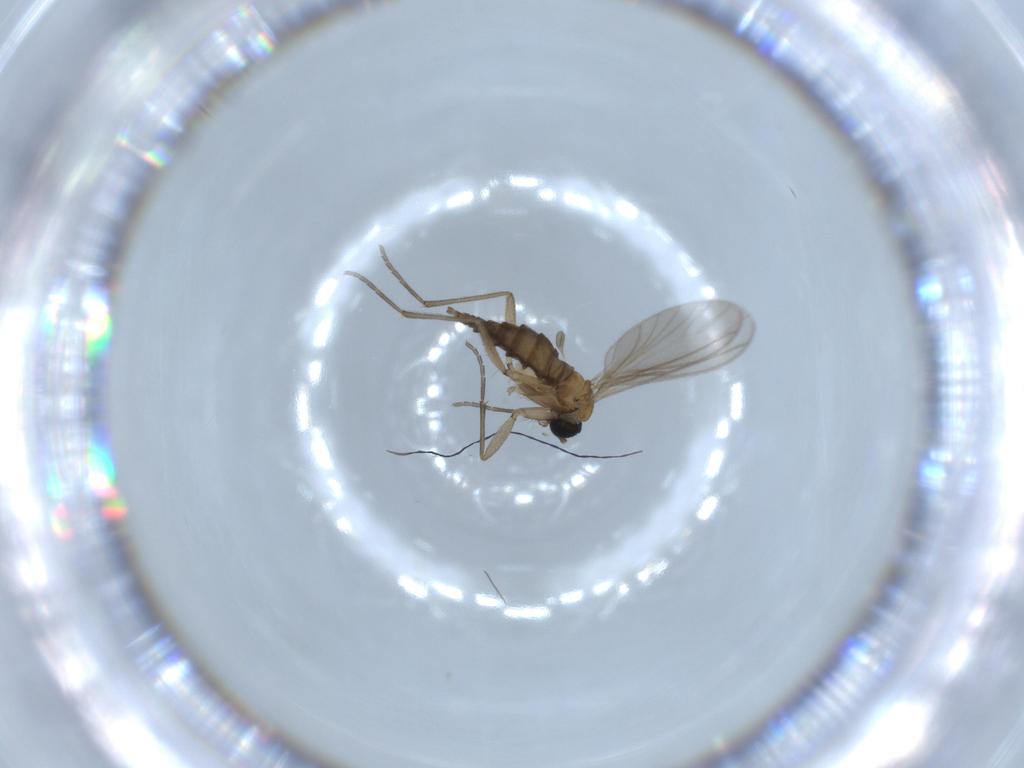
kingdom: Animalia
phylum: Arthropoda
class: Insecta
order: Diptera
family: Sciaridae
